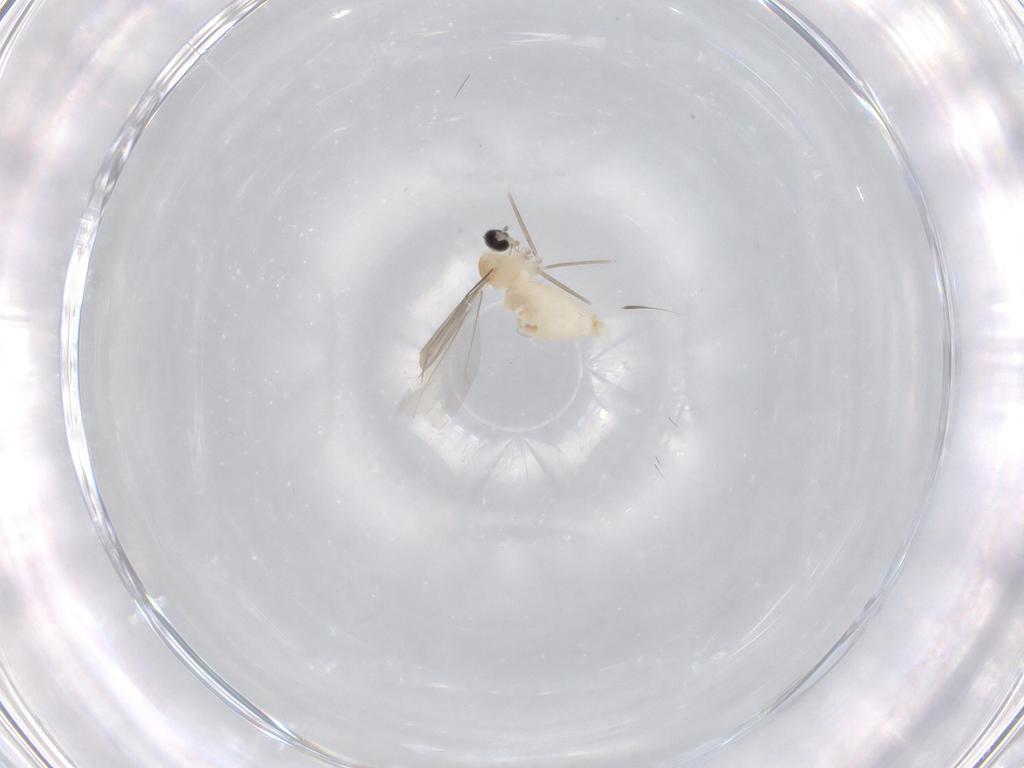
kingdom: Animalia
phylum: Arthropoda
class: Insecta
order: Diptera
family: Cecidomyiidae
